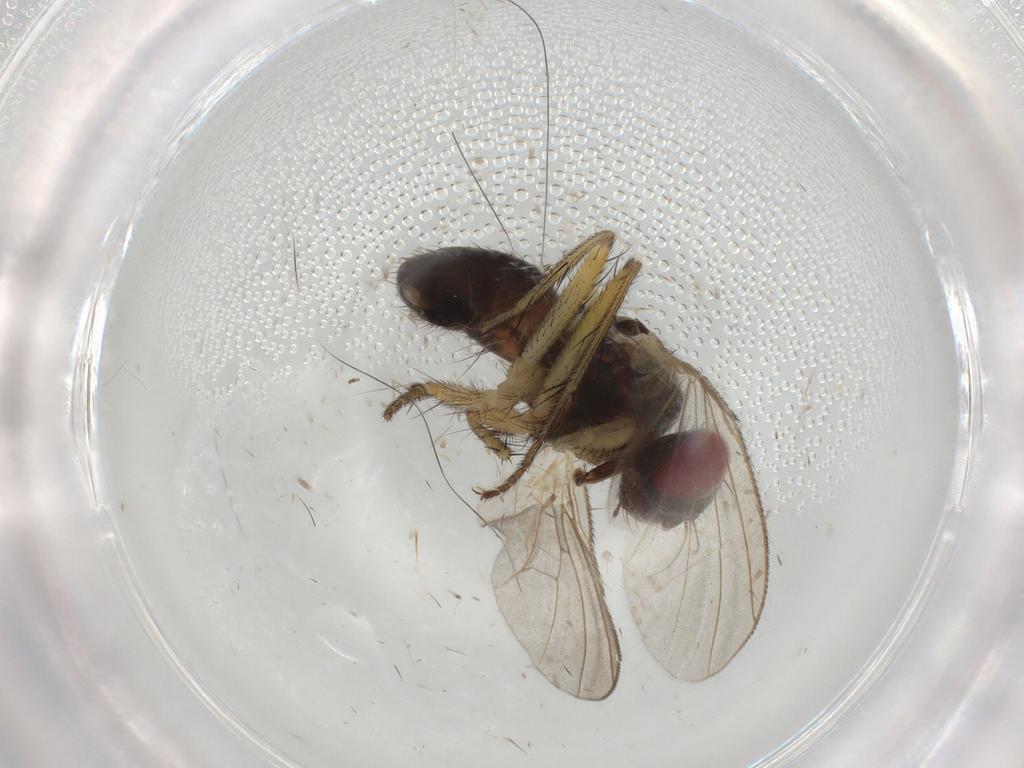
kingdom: Animalia
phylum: Arthropoda
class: Insecta
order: Diptera
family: Muscidae
